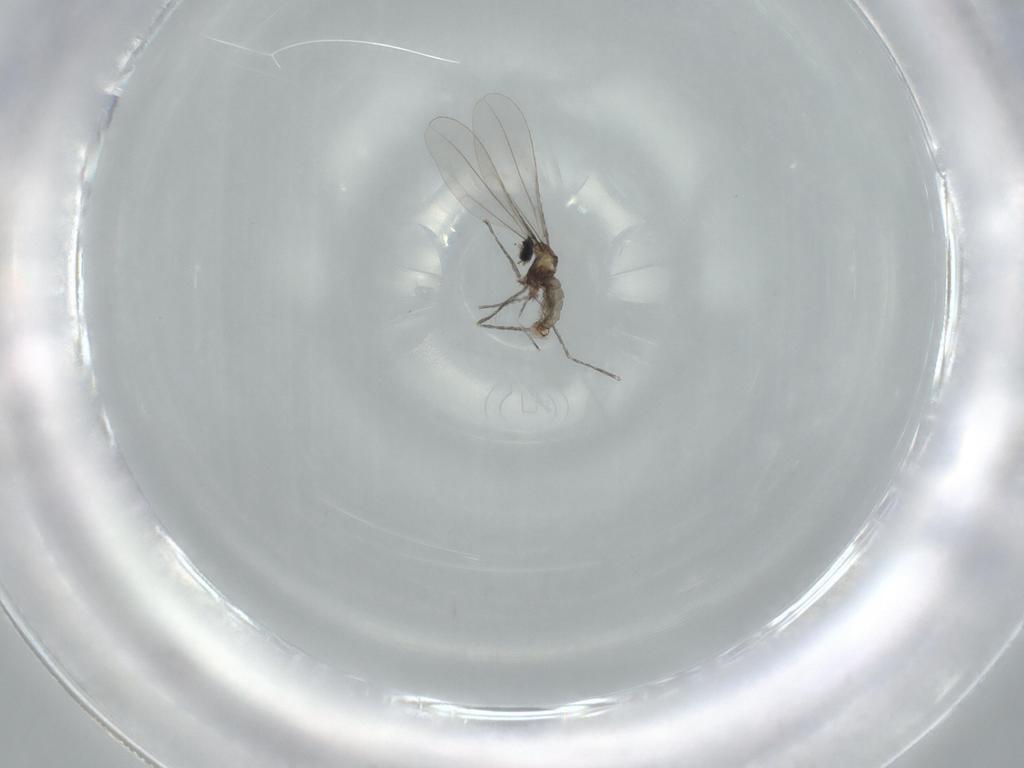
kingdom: Animalia
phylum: Arthropoda
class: Insecta
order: Diptera
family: Cecidomyiidae
